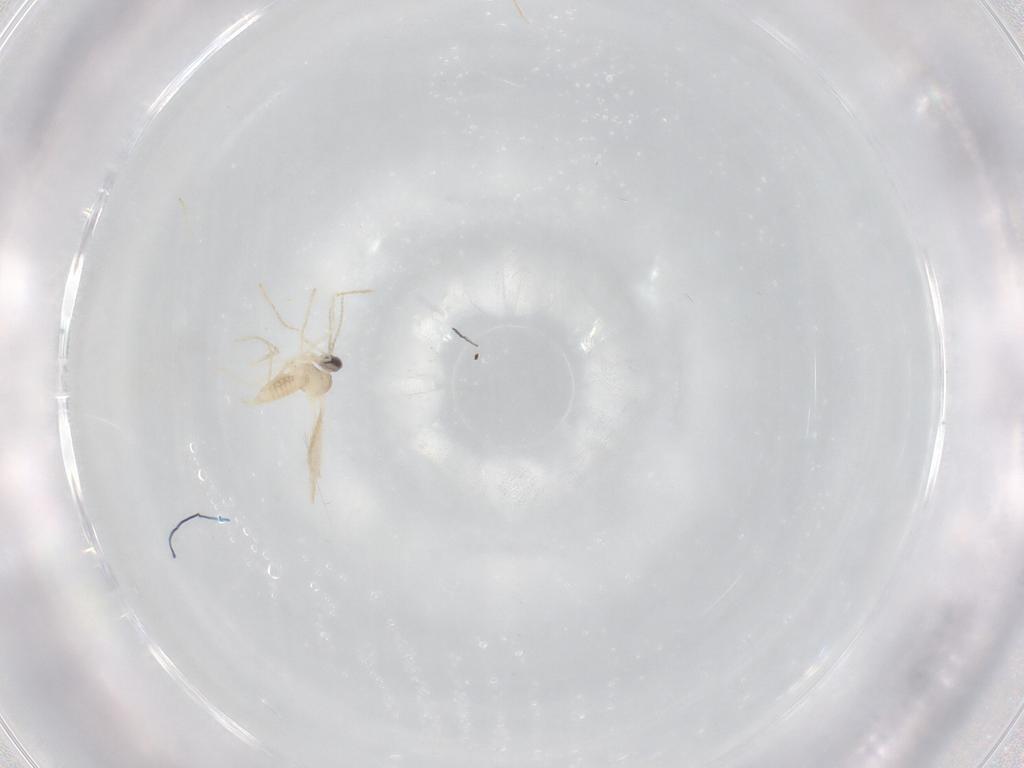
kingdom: Animalia
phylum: Arthropoda
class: Insecta
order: Diptera
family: Cecidomyiidae
